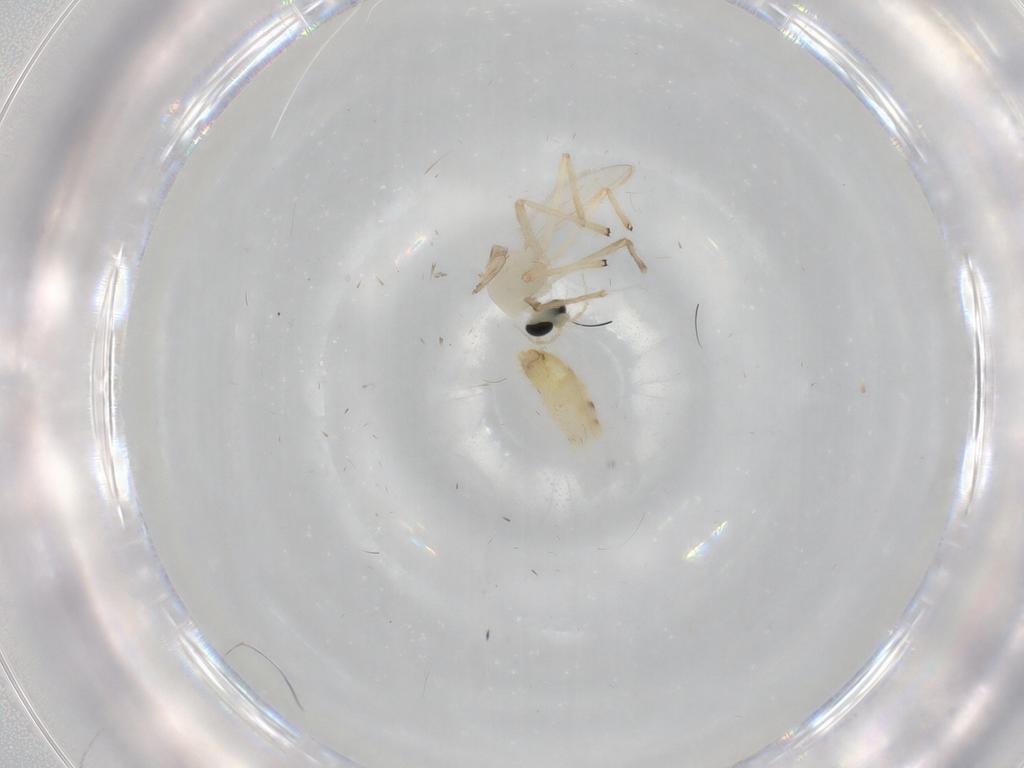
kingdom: Animalia
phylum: Arthropoda
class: Insecta
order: Diptera
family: Chironomidae
